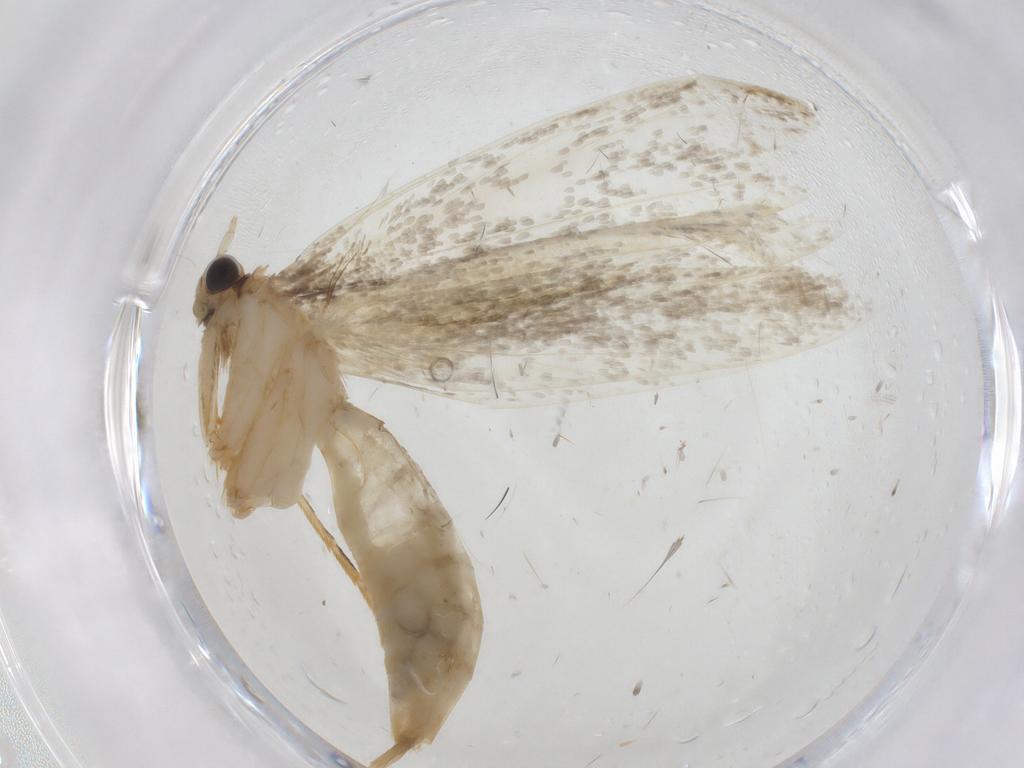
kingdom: Animalia
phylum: Arthropoda
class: Insecta
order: Lepidoptera
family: Tineidae
